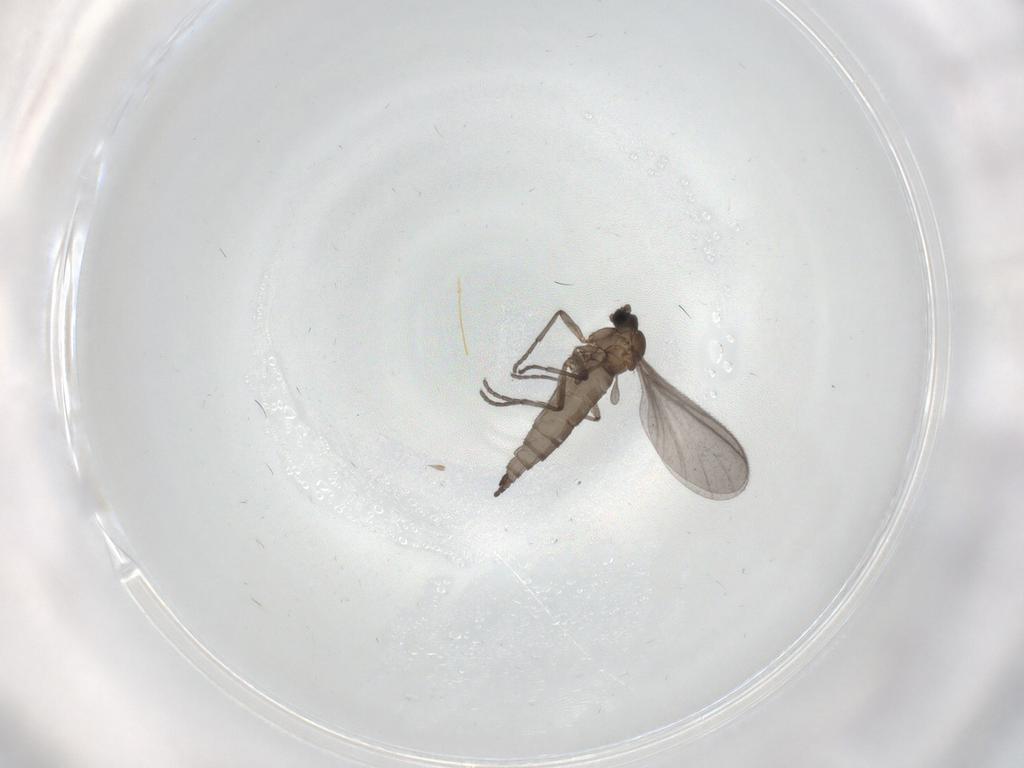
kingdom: Animalia
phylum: Arthropoda
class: Insecta
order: Diptera
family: Sciaridae
